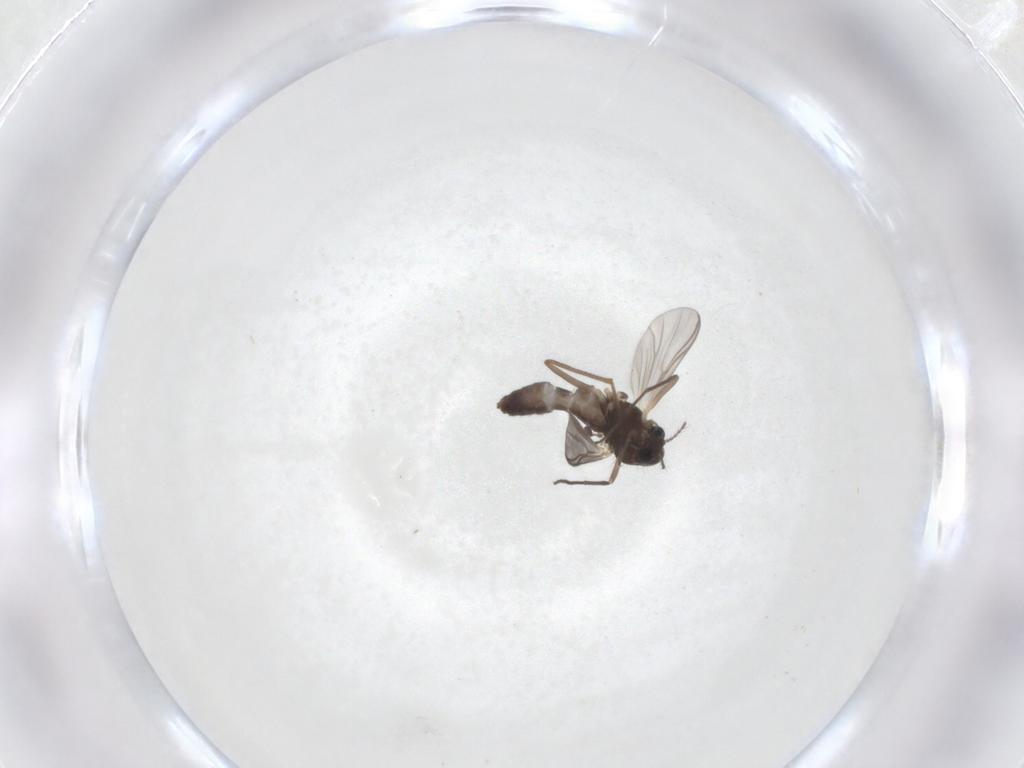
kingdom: Animalia
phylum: Arthropoda
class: Insecta
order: Diptera
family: Chironomidae
